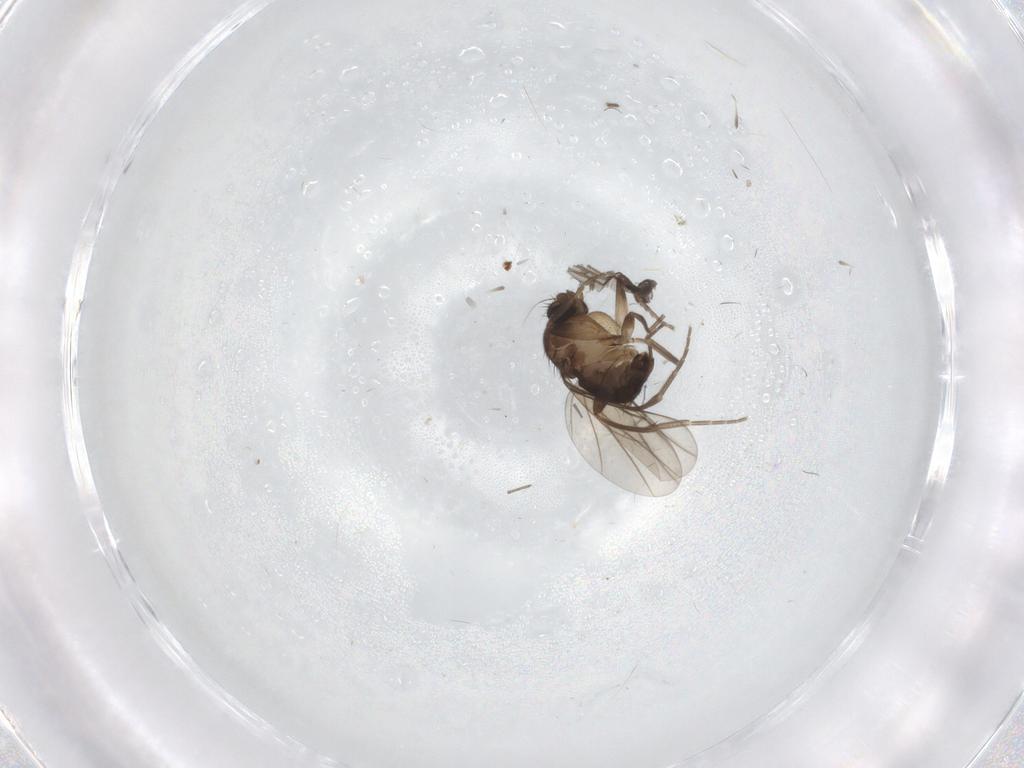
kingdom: Animalia
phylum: Arthropoda
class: Insecta
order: Diptera
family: Phoridae
